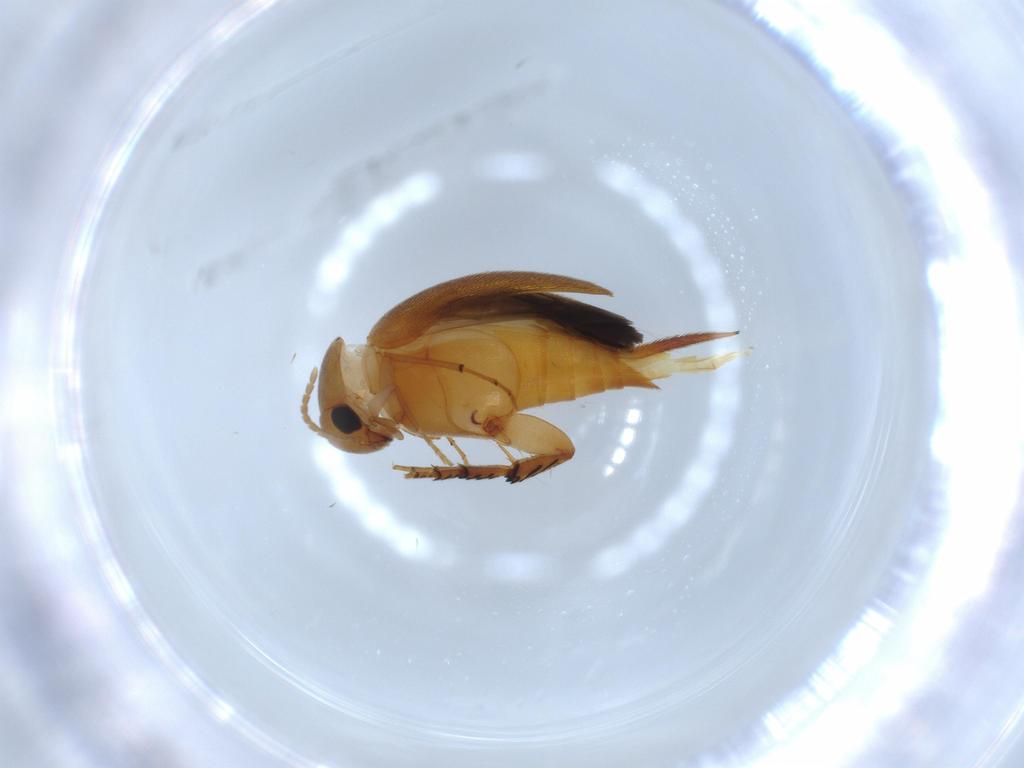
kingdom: Animalia
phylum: Arthropoda
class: Insecta
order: Coleoptera
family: Mordellidae
